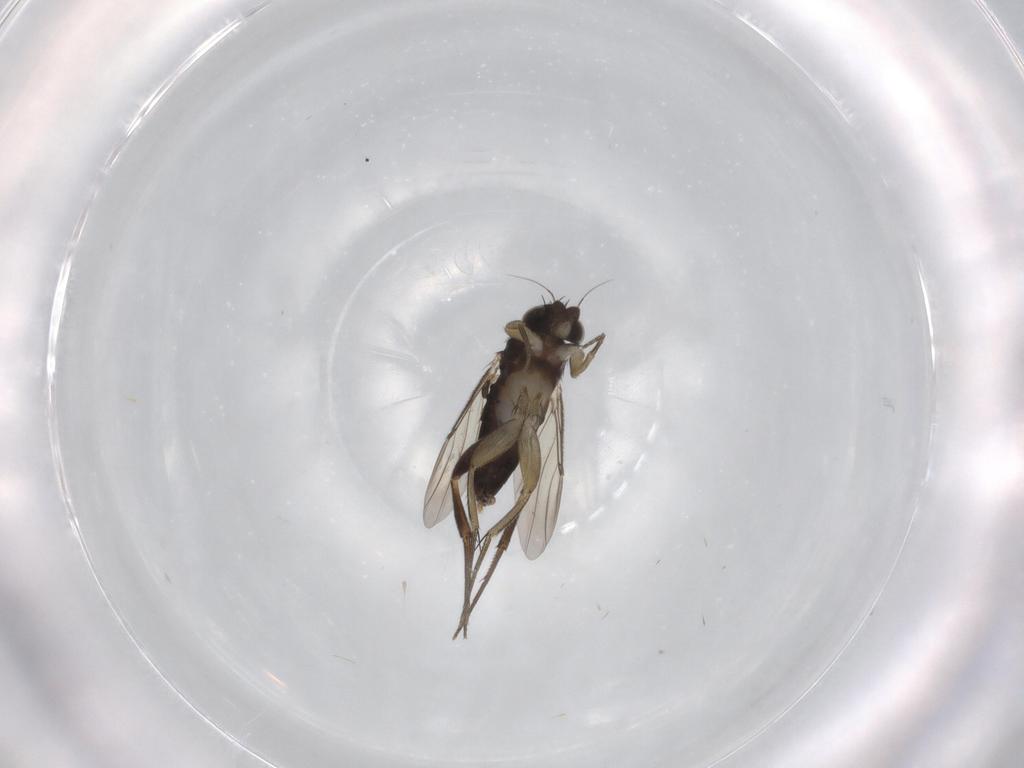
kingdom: Animalia
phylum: Arthropoda
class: Insecta
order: Diptera
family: Phoridae
